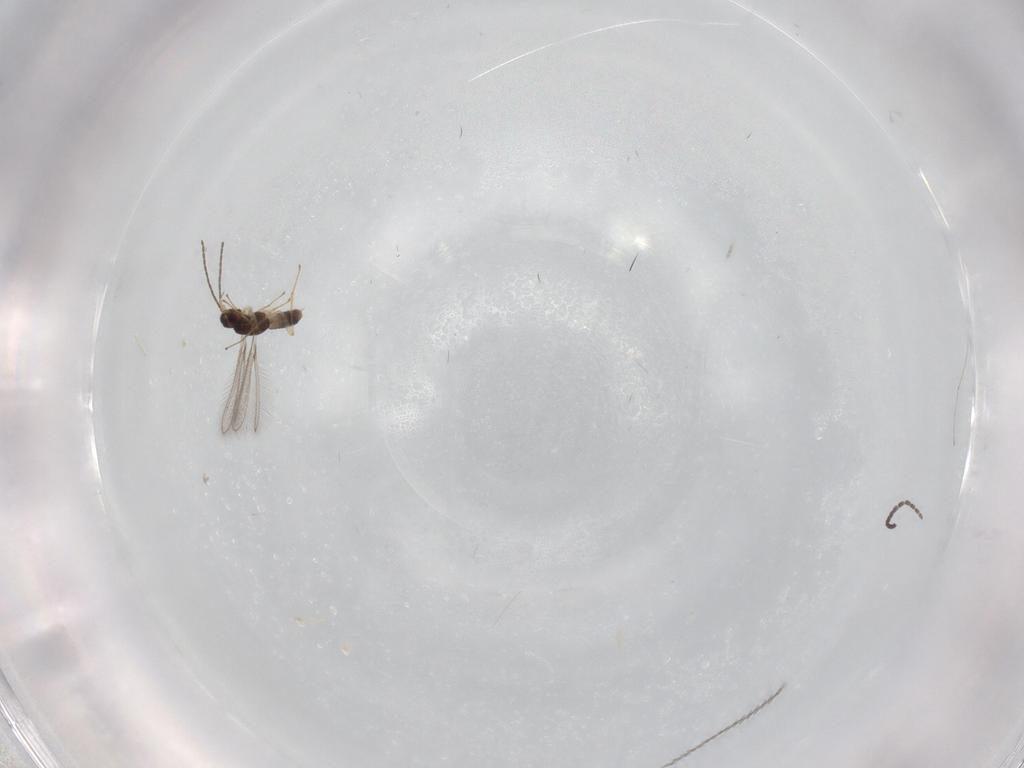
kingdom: Animalia
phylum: Arthropoda
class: Insecta
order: Hymenoptera
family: Mymaridae
